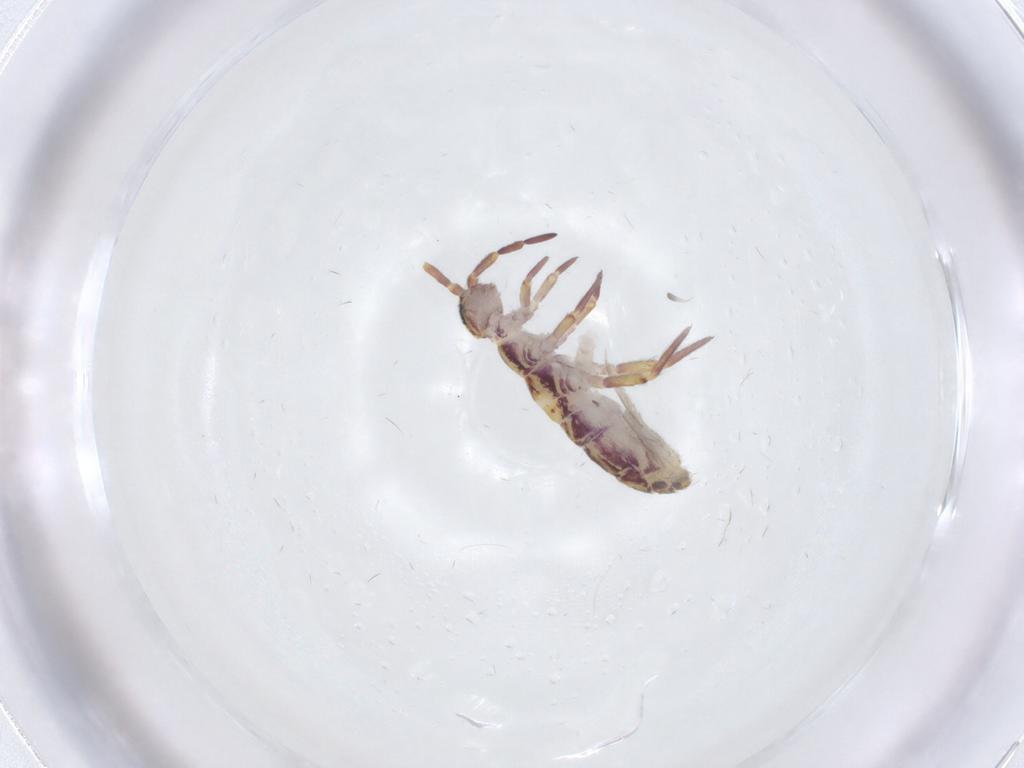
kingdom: Animalia
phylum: Arthropoda
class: Collembola
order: Entomobryomorpha
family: Isotomidae
